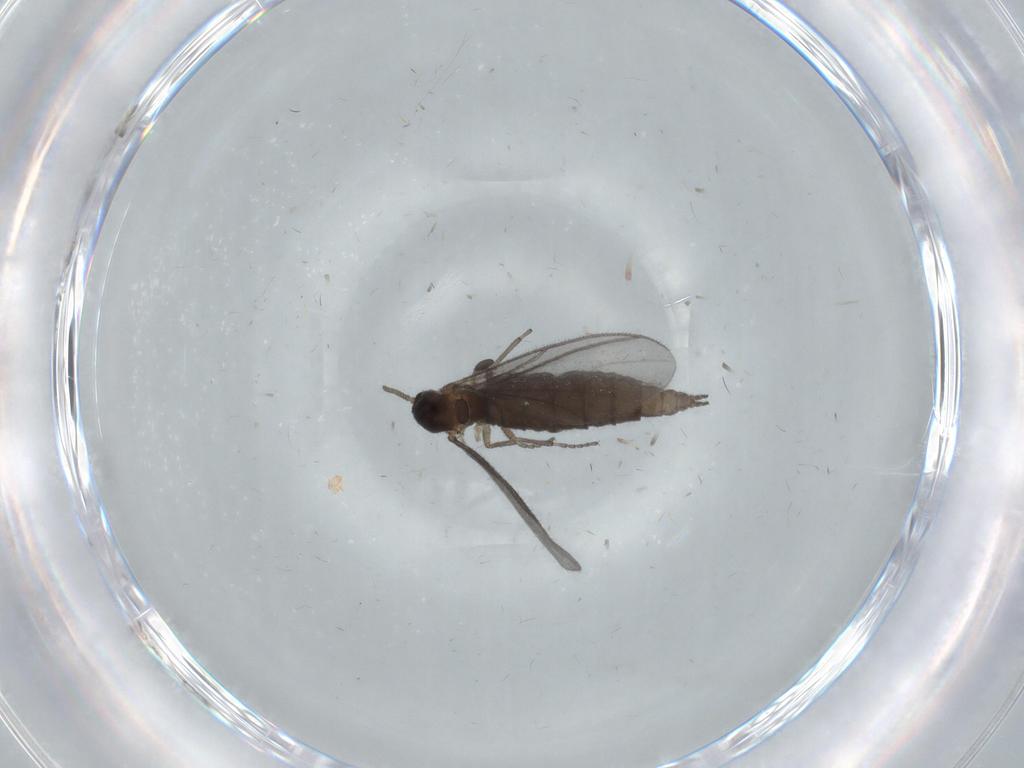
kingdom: Animalia
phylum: Arthropoda
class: Insecta
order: Diptera
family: Sciaridae
